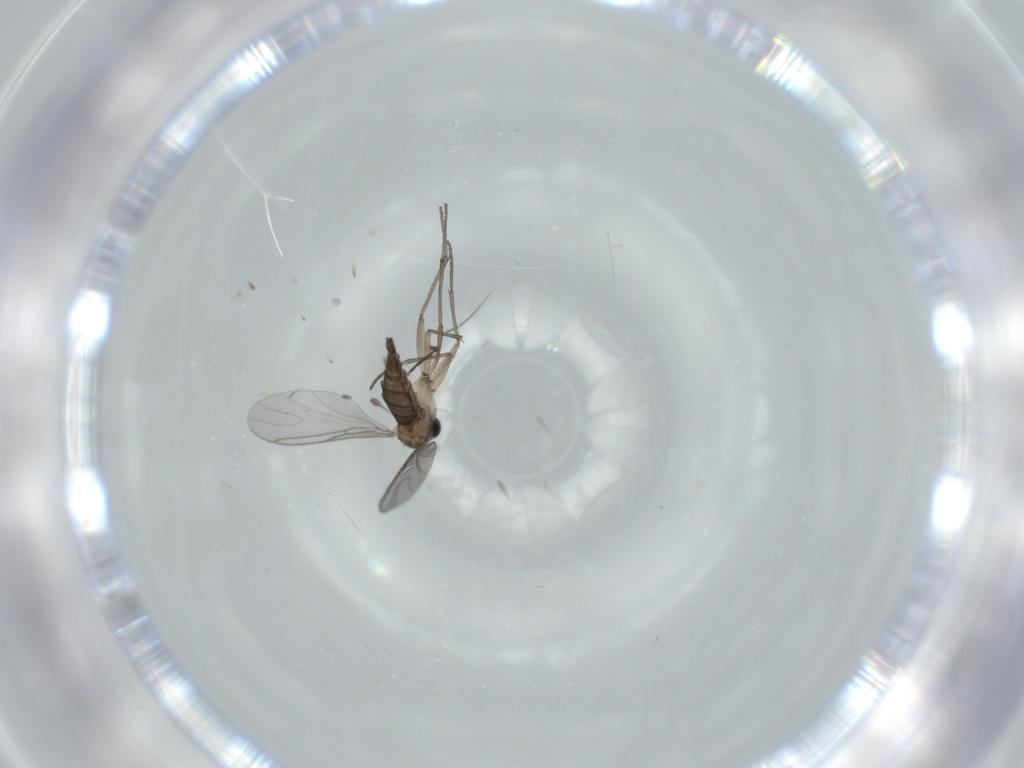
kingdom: Animalia
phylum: Arthropoda
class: Insecta
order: Diptera
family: Sciaridae
